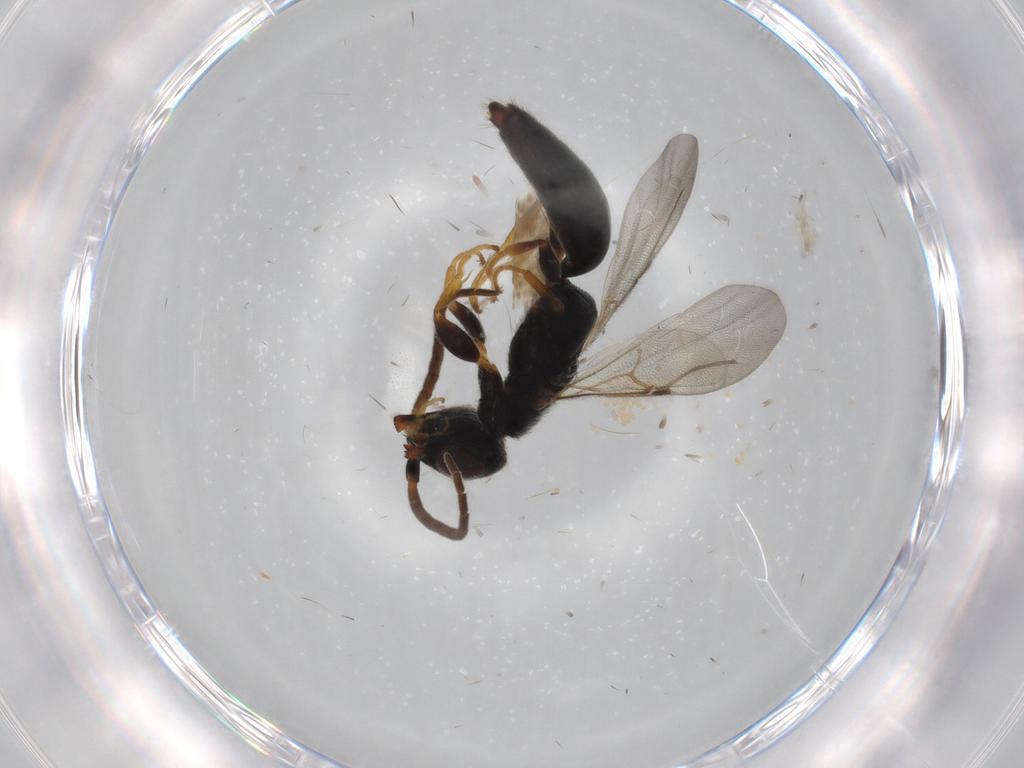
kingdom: Animalia
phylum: Arthropoda
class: Insecta
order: Hymenoptera
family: Bethylidae
